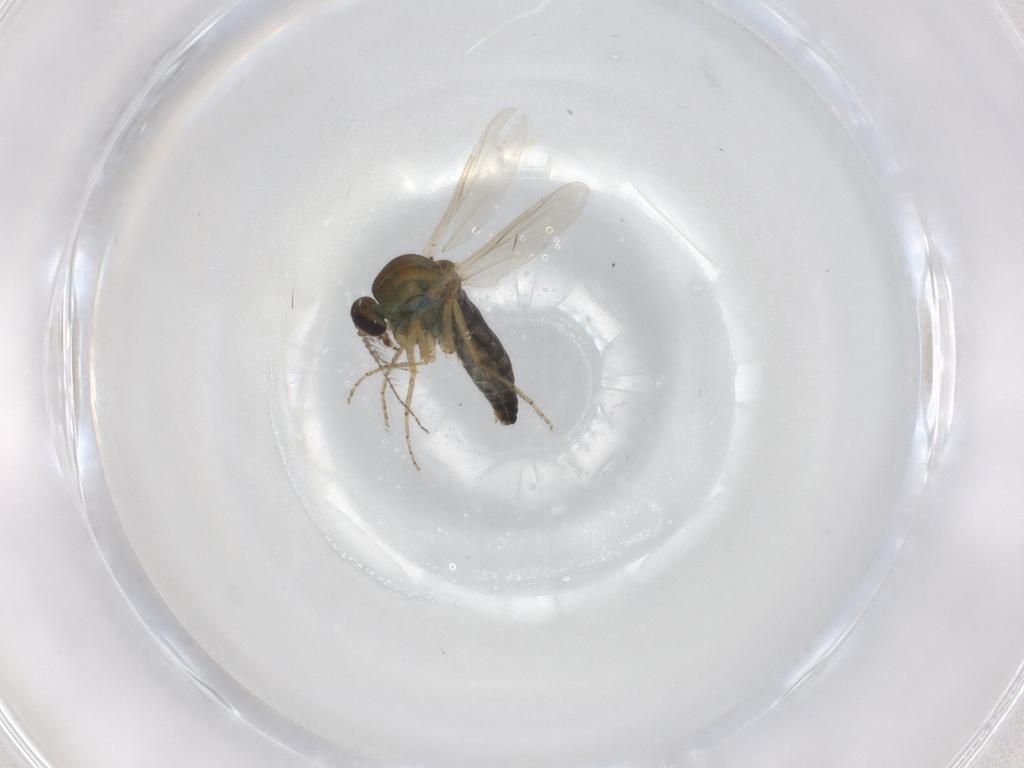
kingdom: Animalia
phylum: Arthropoda
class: Insecta
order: Diptera
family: Ceratopogonidae
